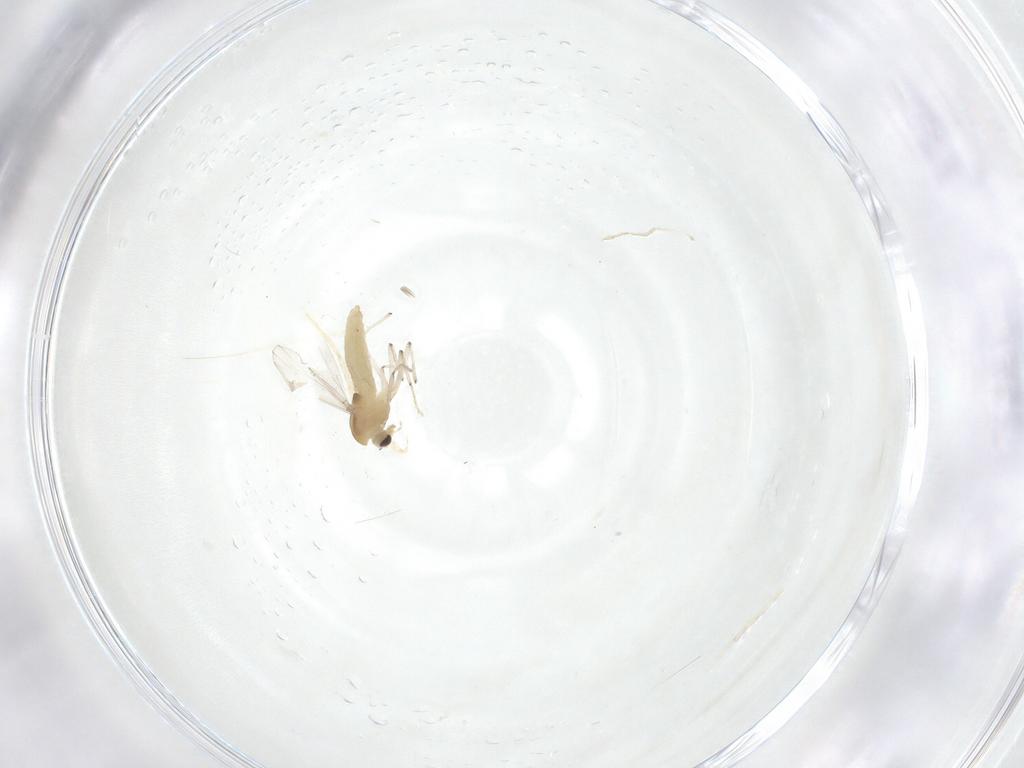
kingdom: Animalia
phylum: Arthropoda
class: Insecta
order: Diptera
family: Chironomidae
